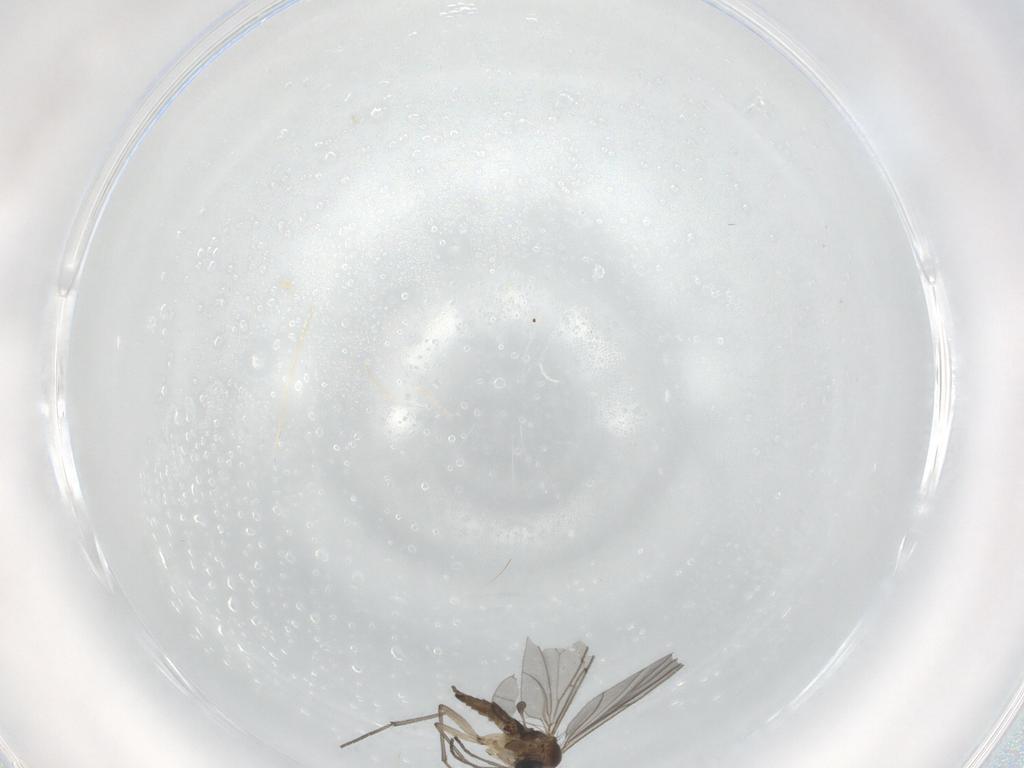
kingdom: Animalia
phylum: Arthropoda
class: Insecta
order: Diptera
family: Sciaridae
